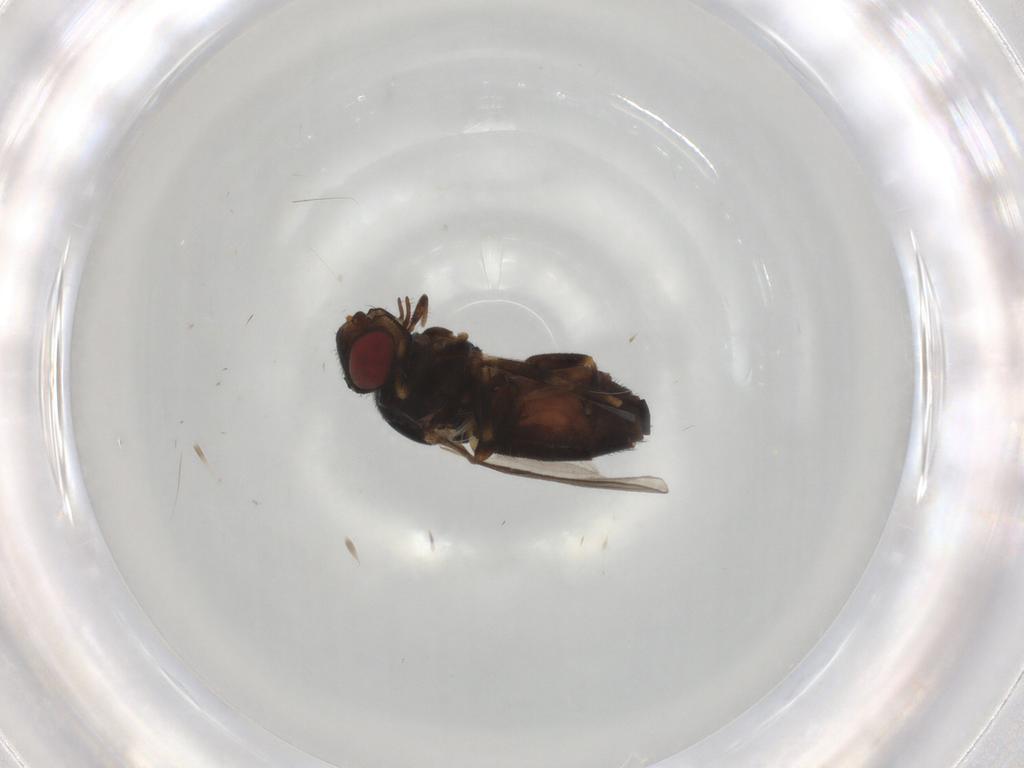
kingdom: Animalia
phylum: Arthropoda
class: Insecta
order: Diptera
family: Chloropidae
